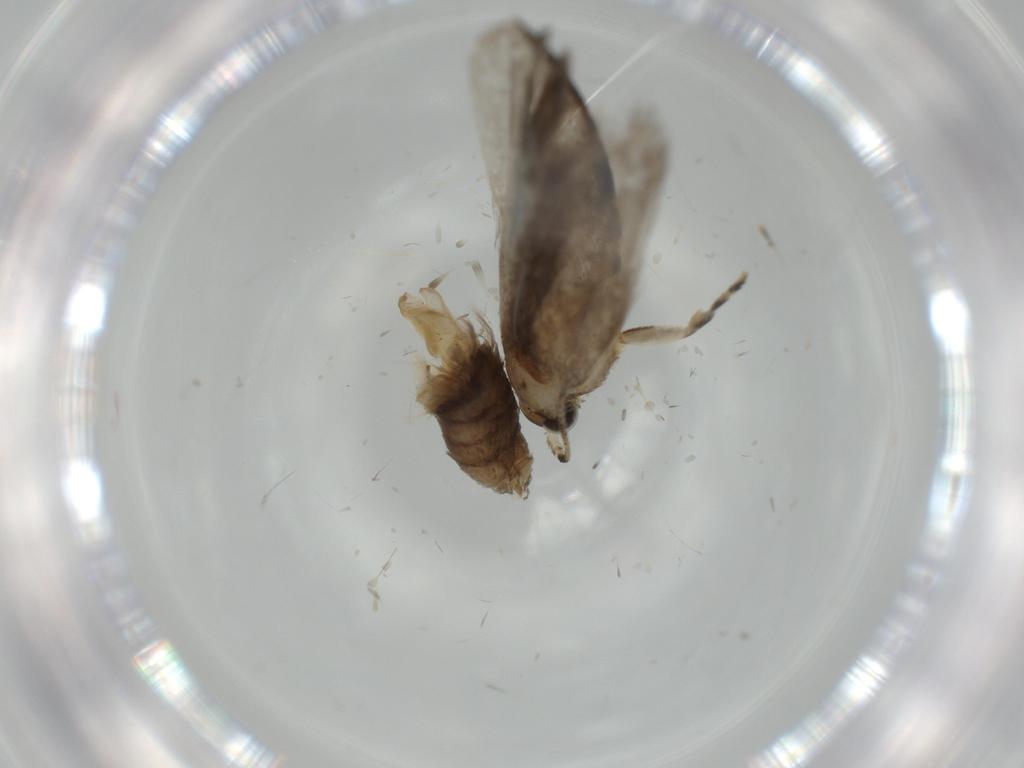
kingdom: Animalia
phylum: Arthropoda
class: Insecta
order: Lepidoptera
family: Tineidae
